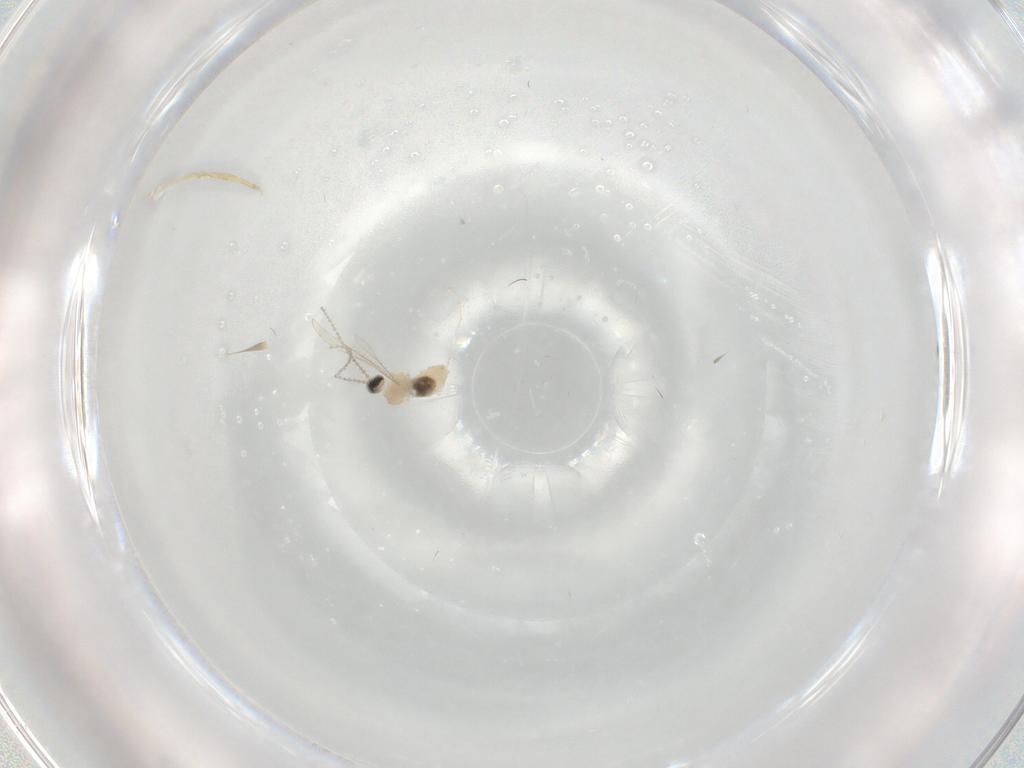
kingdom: Animalia
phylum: Arthropoda
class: Insecta
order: Diptera
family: Cecidomyiidae
